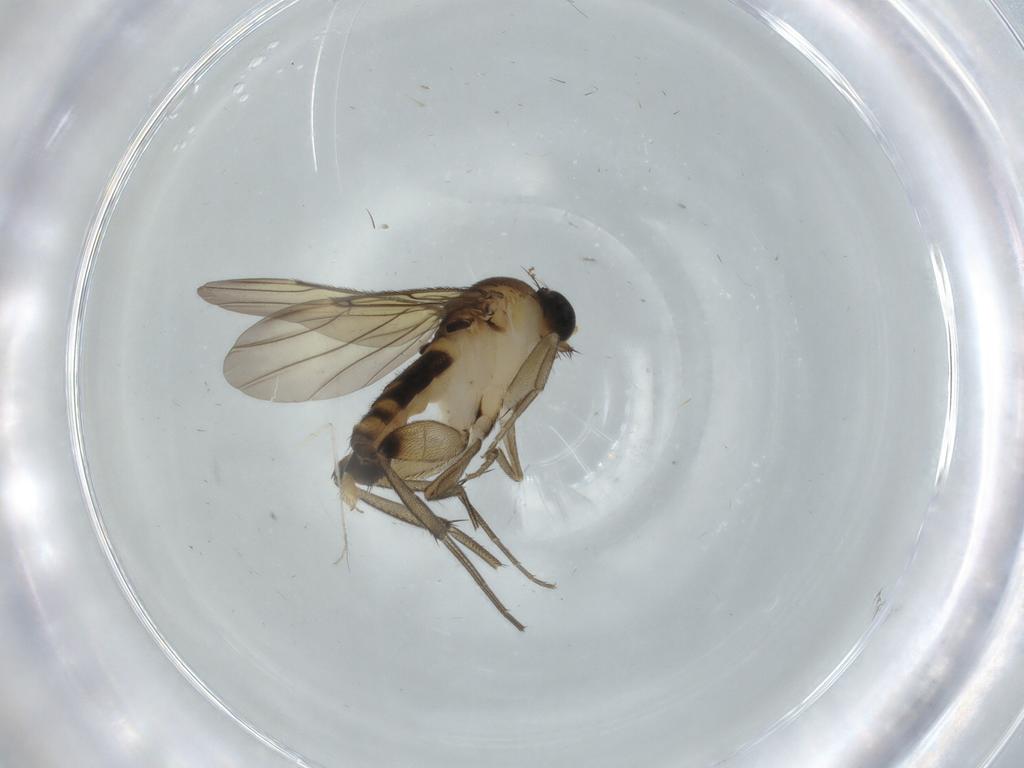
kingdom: Animalia
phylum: Arthropoda
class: Insecta
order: Diptera
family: Phoridae
